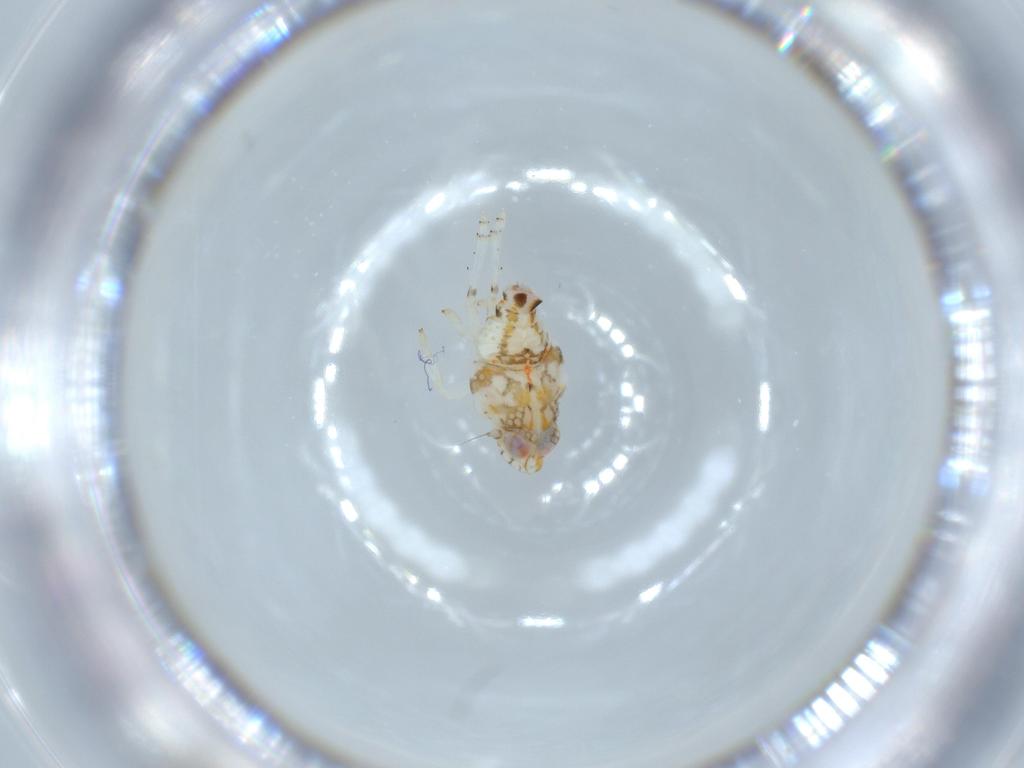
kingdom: Animalia
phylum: Arthropoda
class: Insecta
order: Hemiptera
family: Nogodinidae
